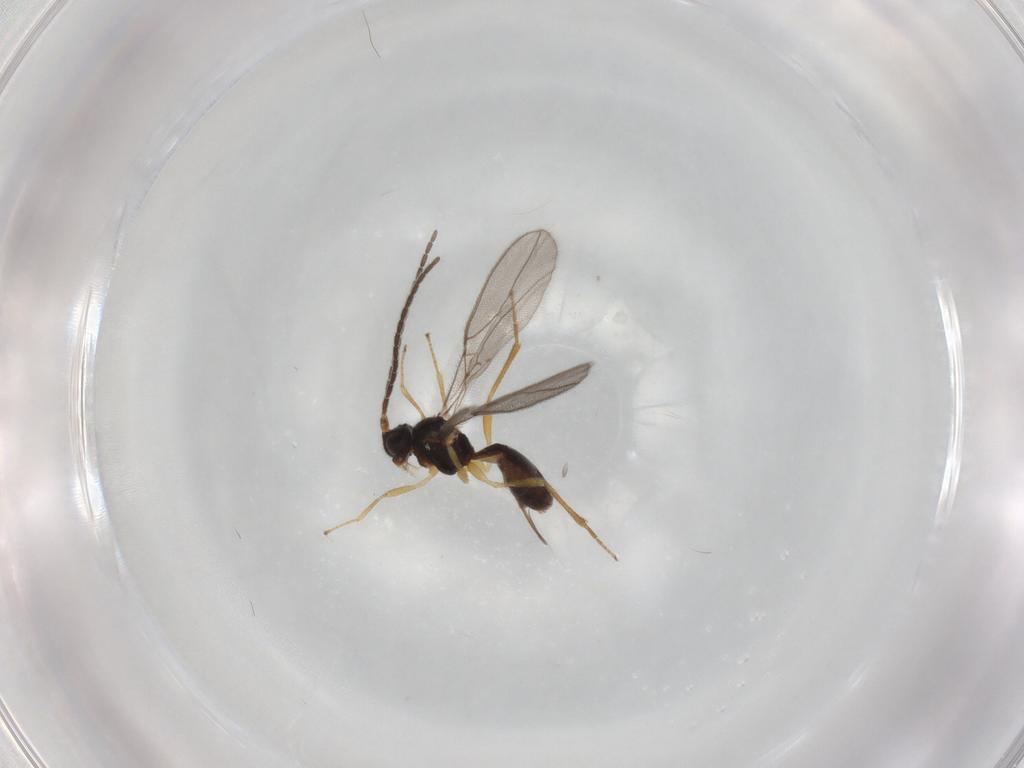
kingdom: Animalia
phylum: Arthropoda
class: Insecta
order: Hymenoptera
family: Braconidae
